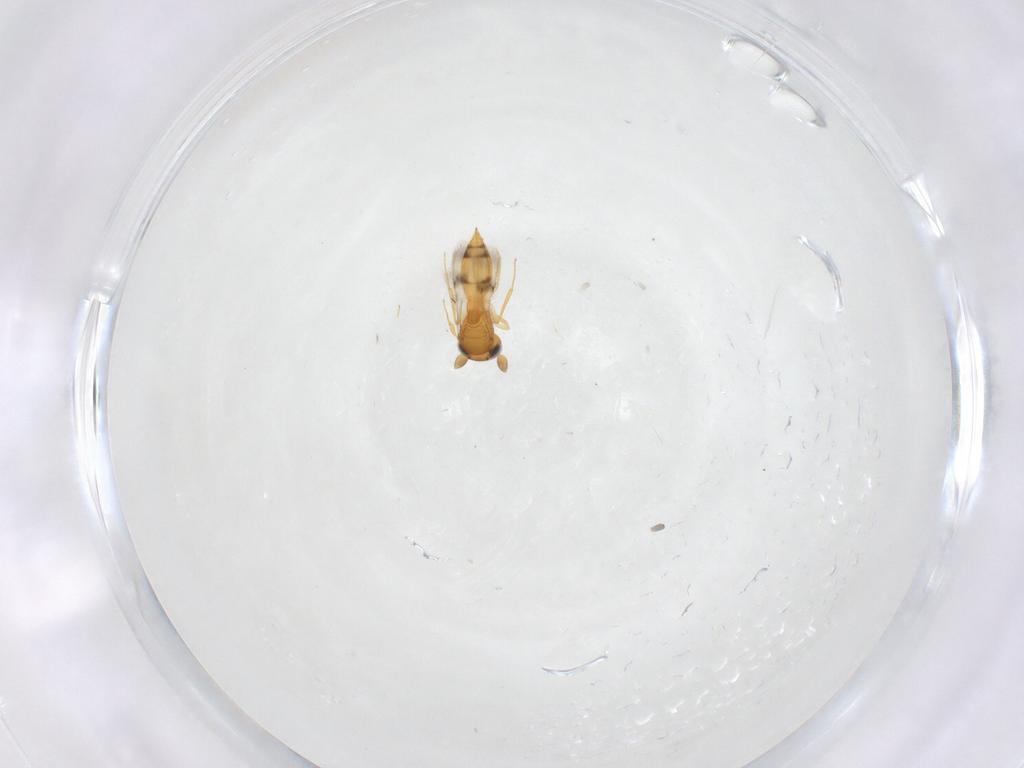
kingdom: Animalia
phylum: Arthropoda
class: Insecta
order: Hymenoptera
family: Scelionidae
